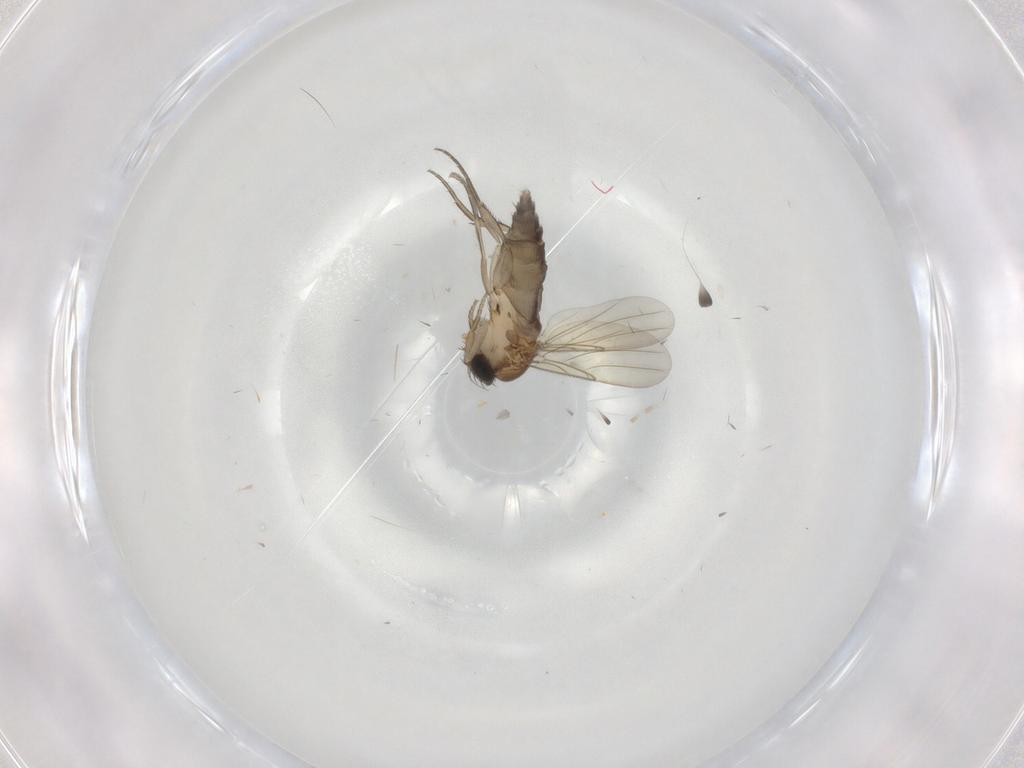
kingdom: Animalia
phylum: Arthropoda
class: Insecta
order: Diptera
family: Phoridae
